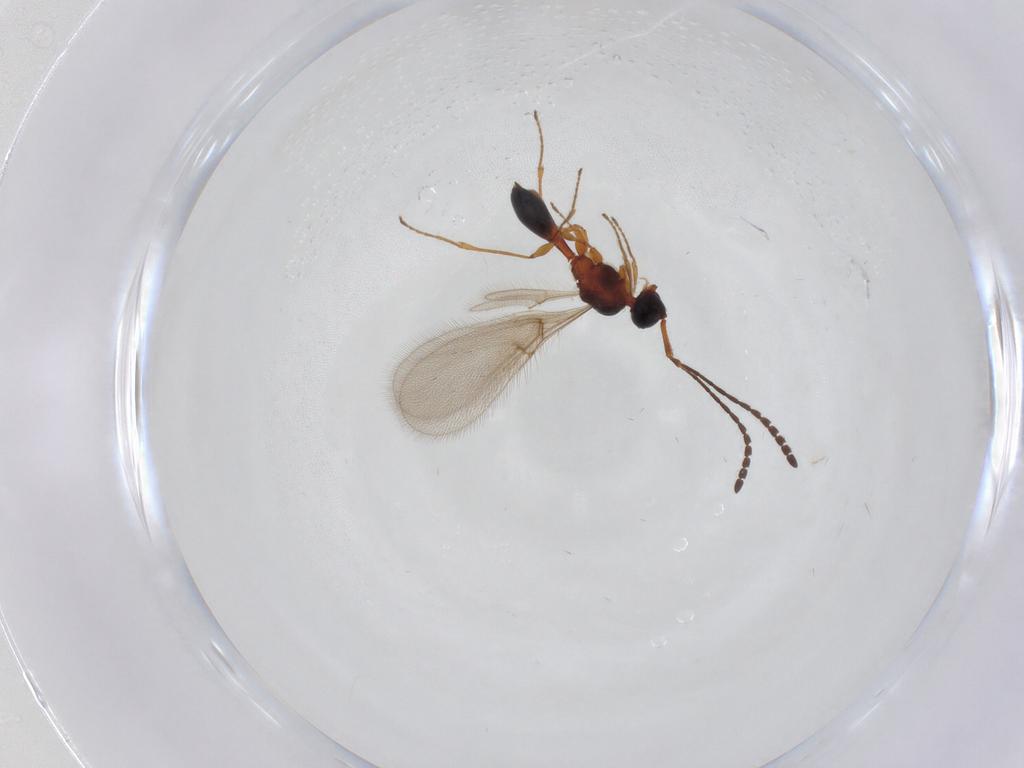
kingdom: Animalia
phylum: Arthropoda
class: Insecta
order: Hymenoptera
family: Diapriidae
